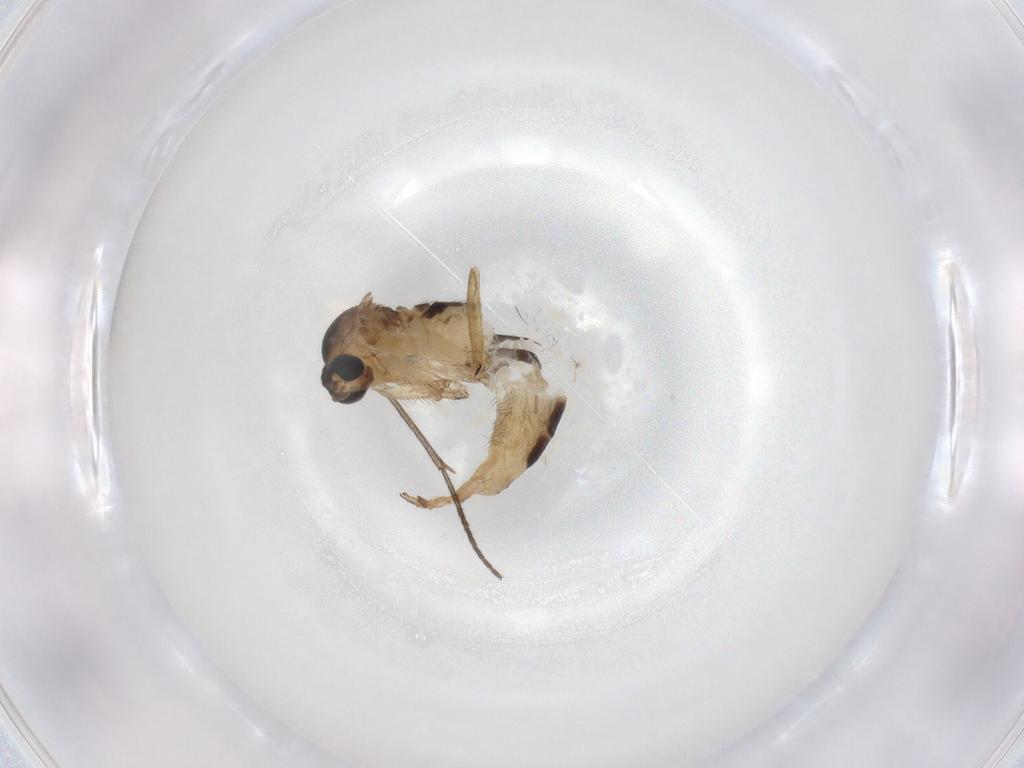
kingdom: Animalia
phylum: Arthropoda
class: Insecta
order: Diptera
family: Sciaridae
